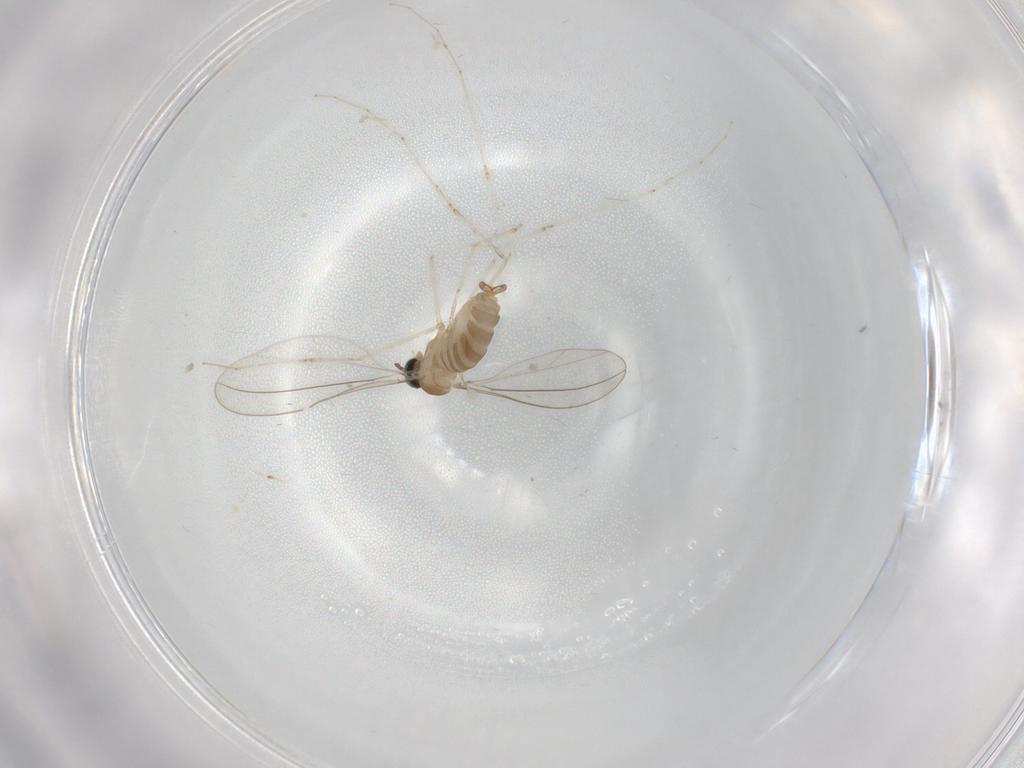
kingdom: Animalia
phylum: Arthropoda
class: Insecta
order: Diptera
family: Cecidomyiidae
